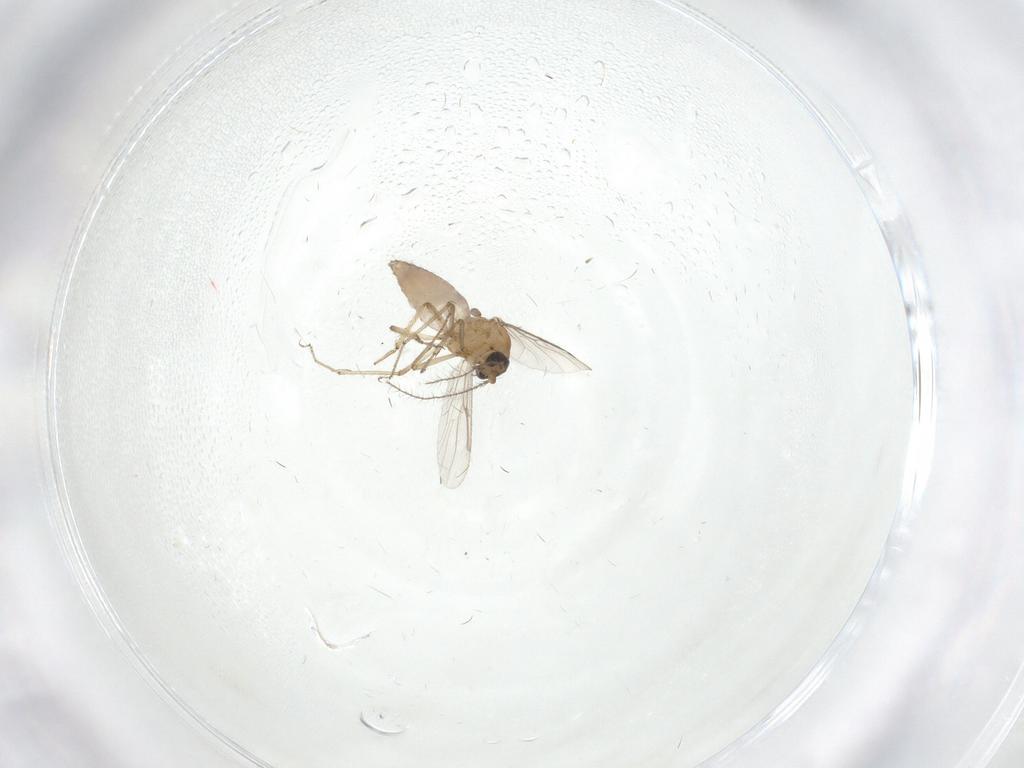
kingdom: Animalia
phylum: Arthropoda
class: Insecta
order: Diptera
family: Ceratopogonidae
